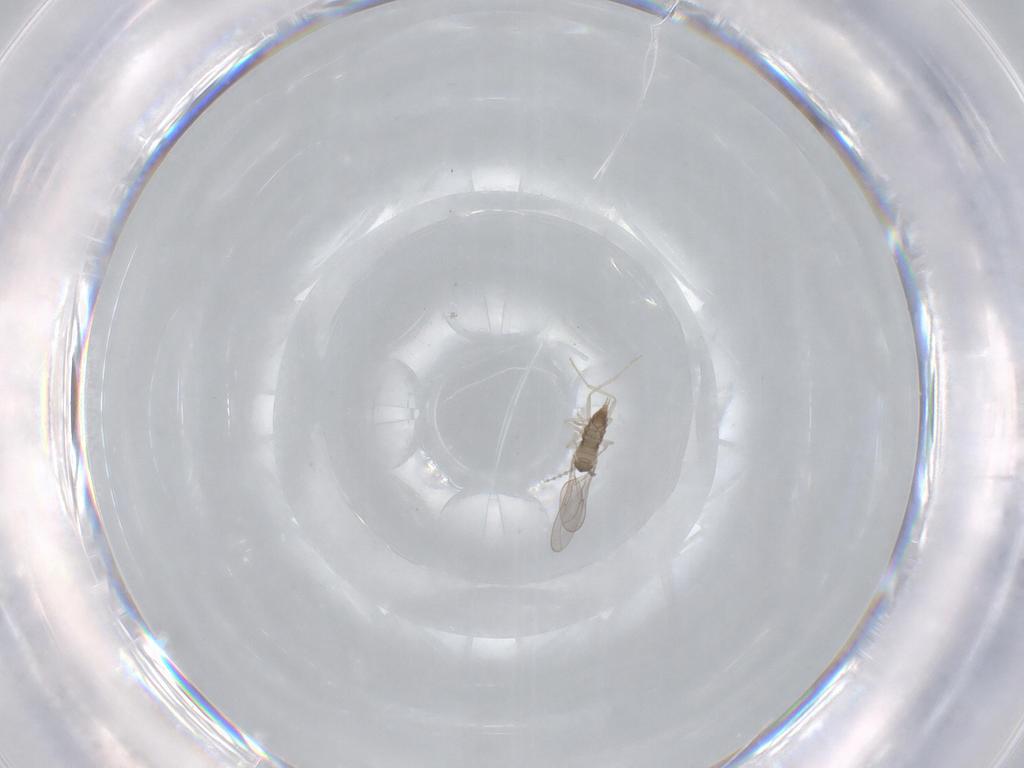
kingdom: Animalia
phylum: Arthropoda
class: Insecta
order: Diptera
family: Cecidomyiidae
